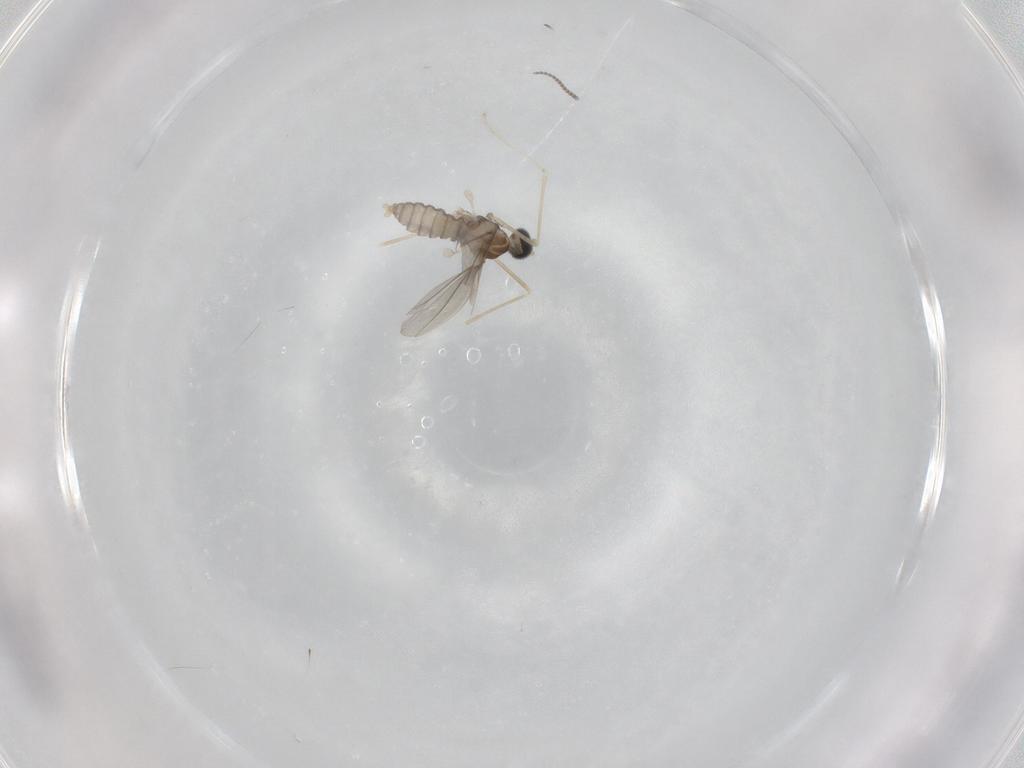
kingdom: Animalia
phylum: Arthropoda
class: Insecta
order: Diptera
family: Cecidomyiidae
